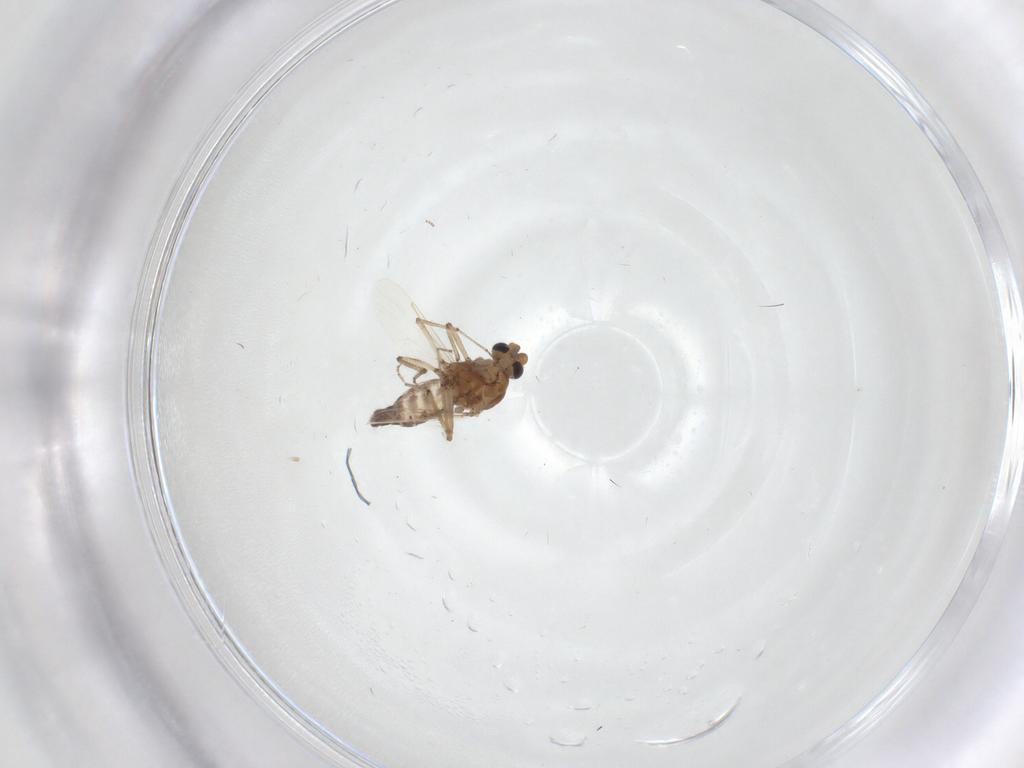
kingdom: Animalia
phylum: Arthropoda
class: Insecta
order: Diptera
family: Ceratopogonidae
